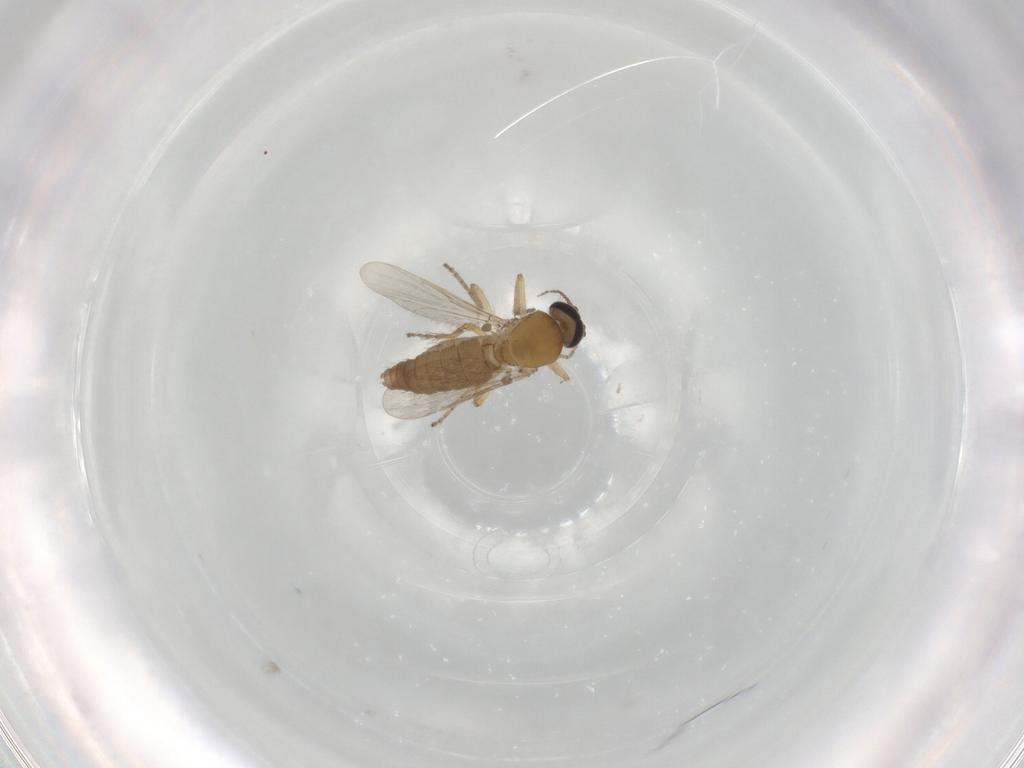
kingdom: Animalia
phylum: Arthropoda
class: Insecta
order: Diptera
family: Ceratopogonidae
